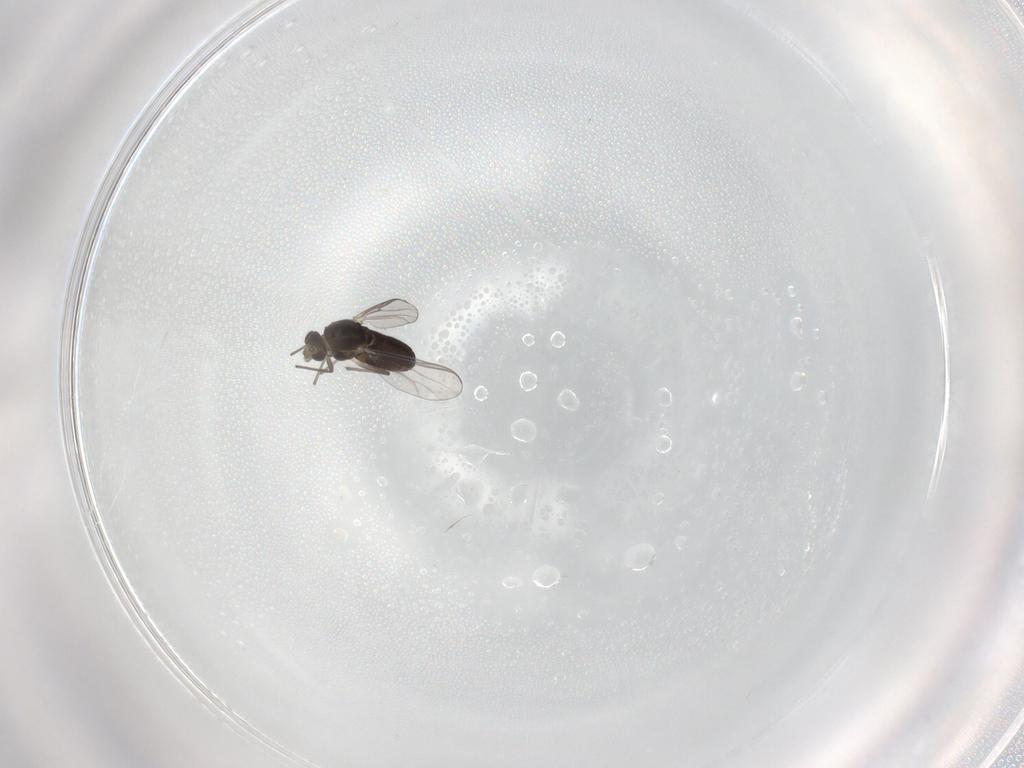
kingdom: Animalia
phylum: Arthropoda
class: Insecta
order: Diptera
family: Chironomidae
